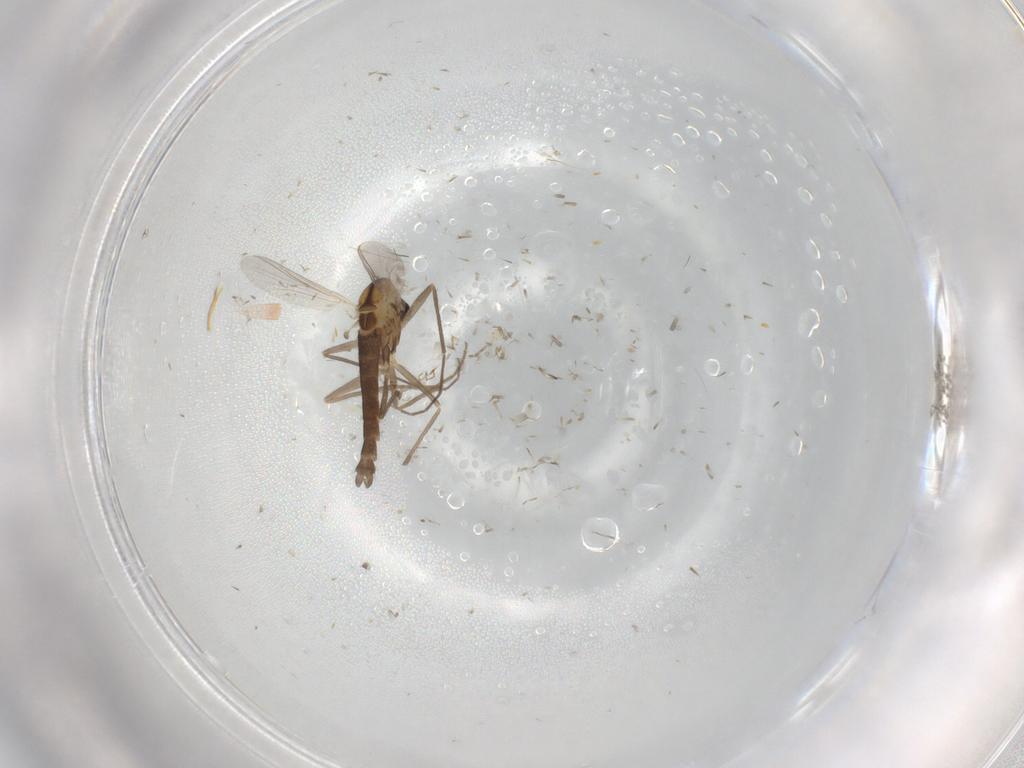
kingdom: Animalia
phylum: Arthropoda
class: Insecta
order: Diptera
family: Chironomidae
